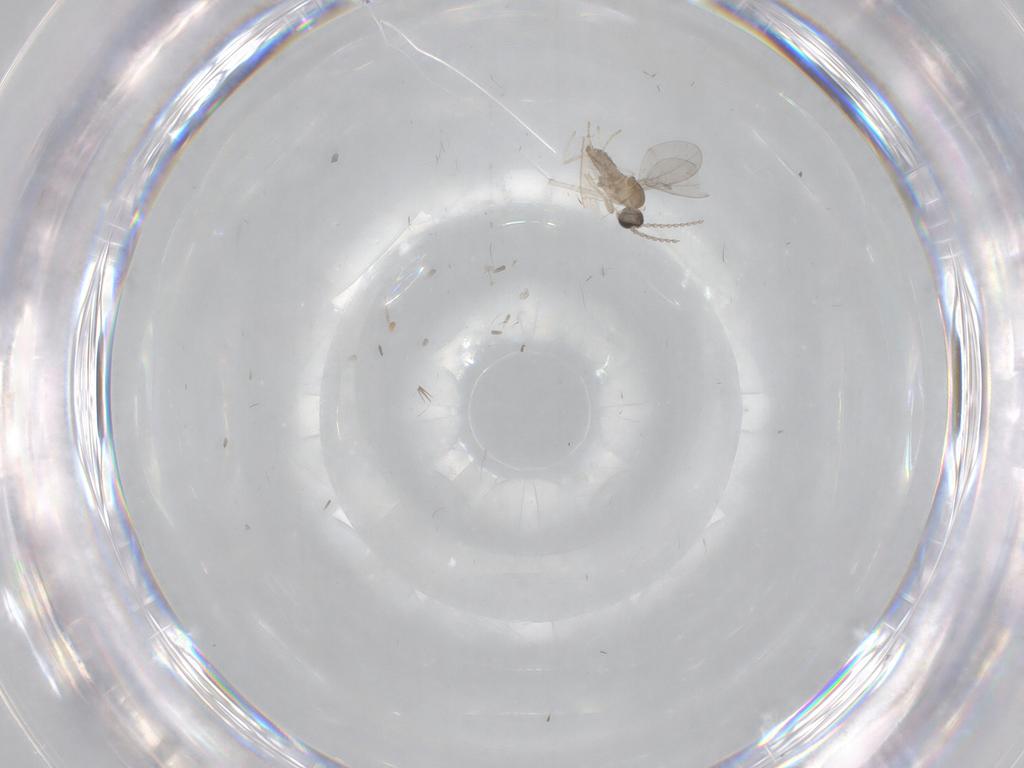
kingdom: Animalia
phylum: Arthropoda
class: Insecta
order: Diptera
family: Cecidomyiidae
